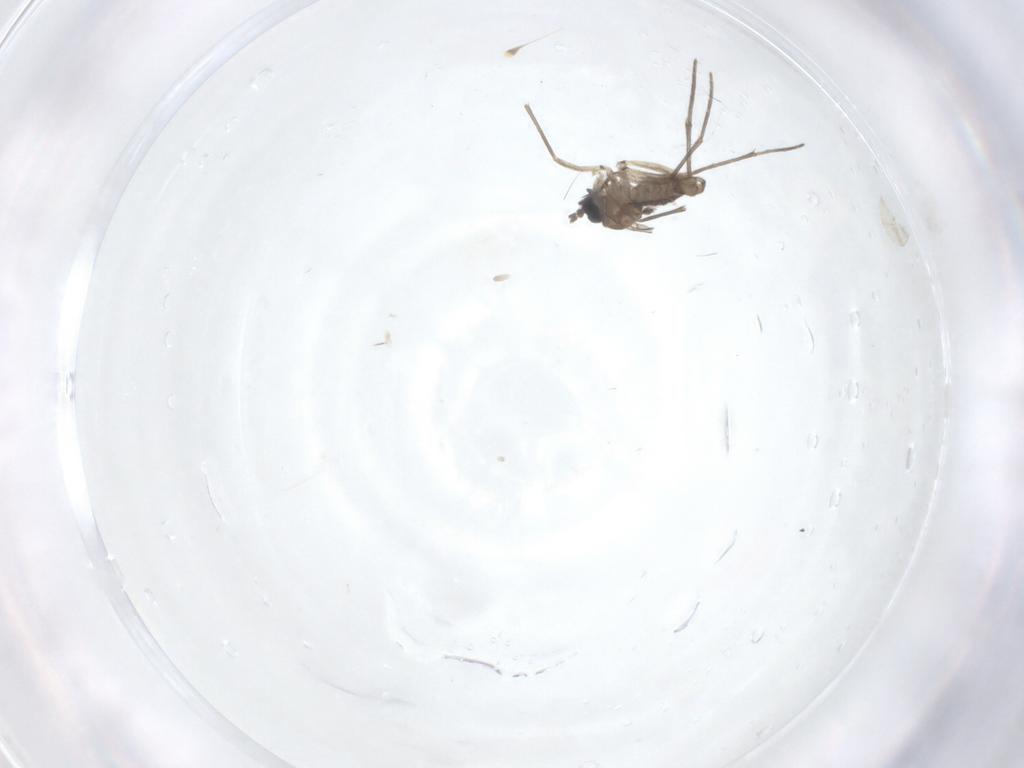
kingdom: Animalia
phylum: Arthropoda
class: Insecta
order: Diptera
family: Sciaridae
